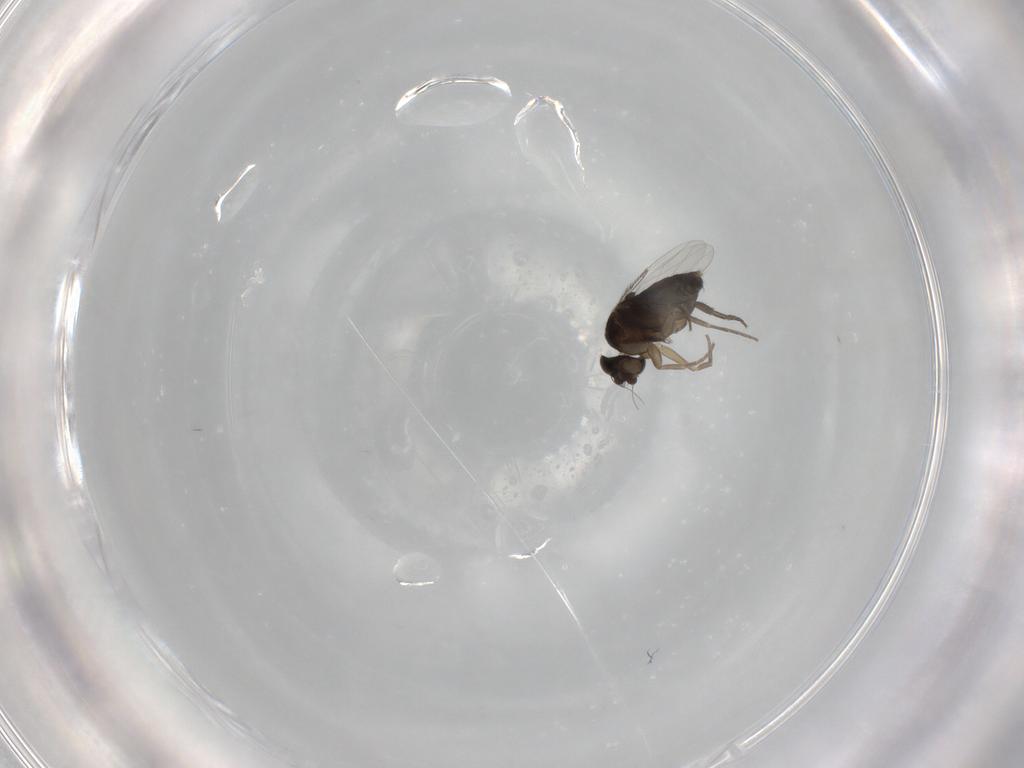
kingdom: Animalia
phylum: Arthropoda
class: Insecta
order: Diptera
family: Phoridae
